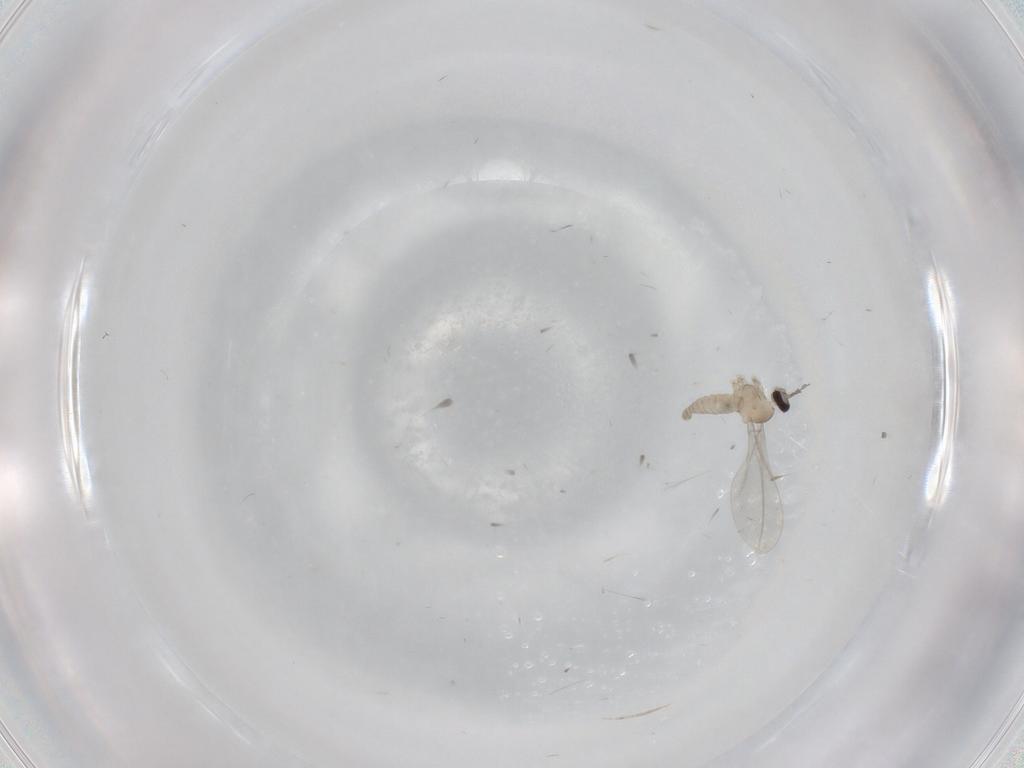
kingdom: Animalia
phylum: Arthropoda
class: Insecta
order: Diptera
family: Cecidomyiidae
